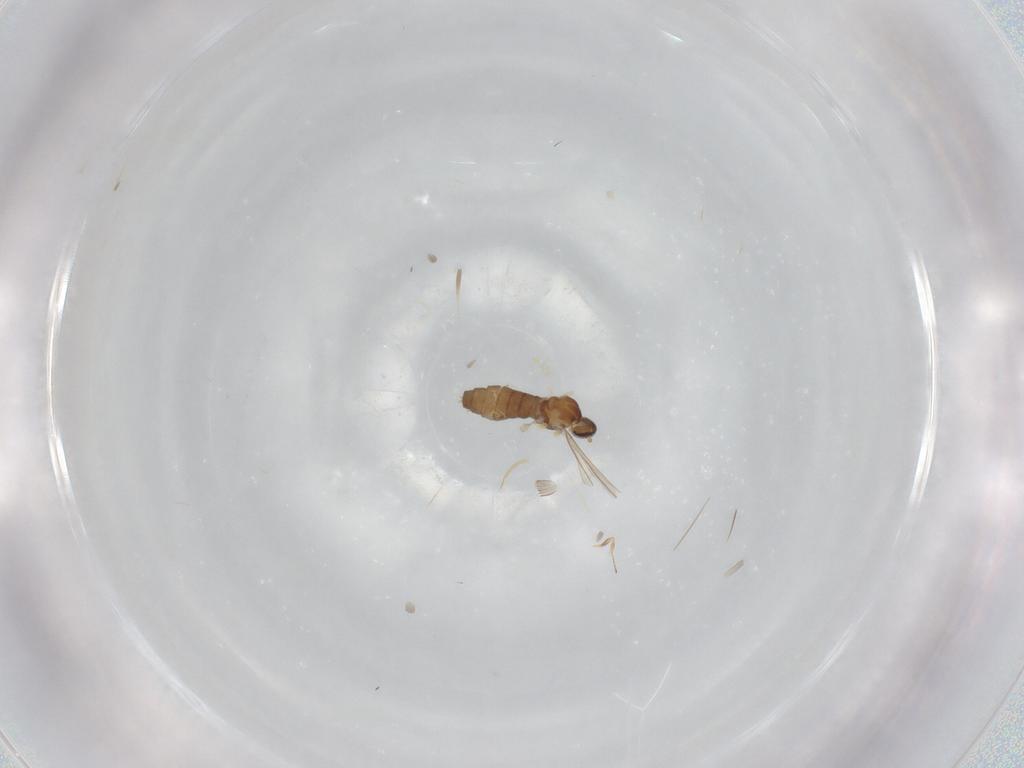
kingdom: Animalia
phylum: Arthropoda
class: Insecta
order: Diptera
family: Cecidomyiidae
